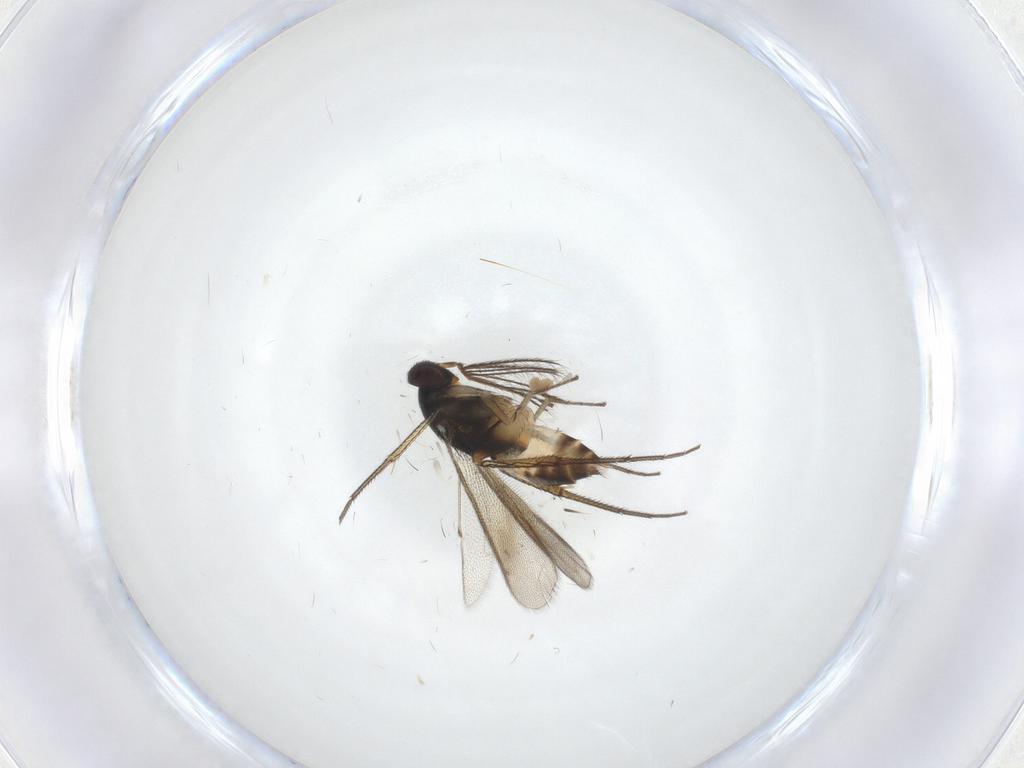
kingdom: Animalia
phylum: Arthropoda
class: Insecta
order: Hymenoptera
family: Eulophidae
